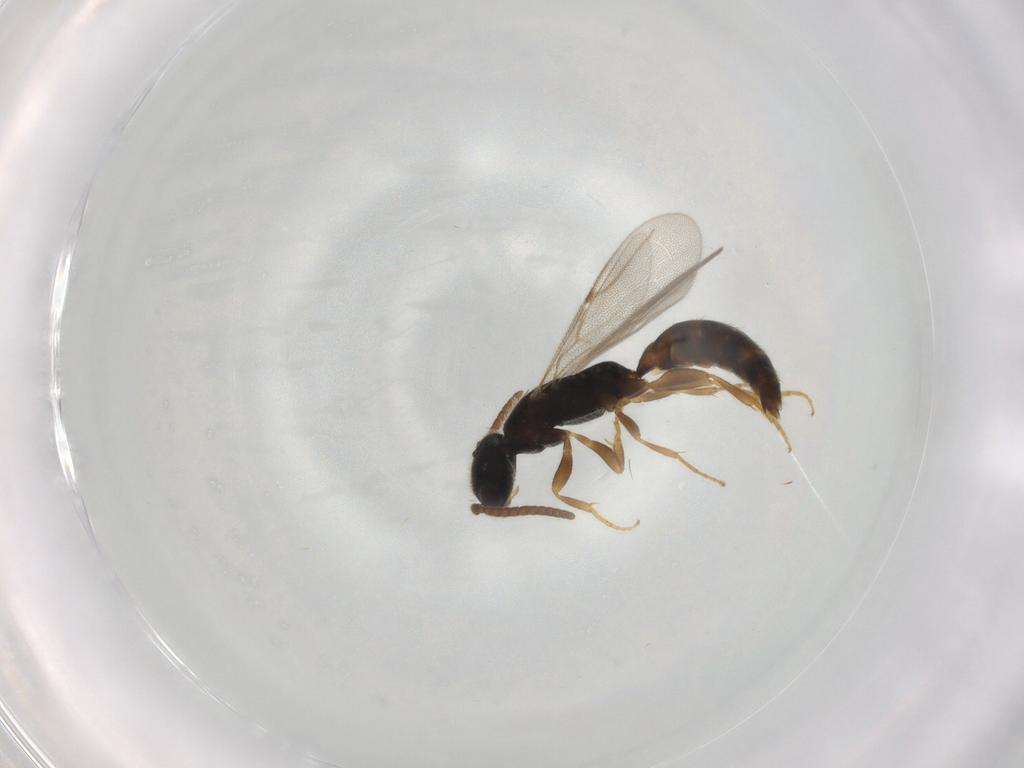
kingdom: Animalia
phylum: Arthropoda
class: Insecta
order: Hymenoptera
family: Bethylidae
